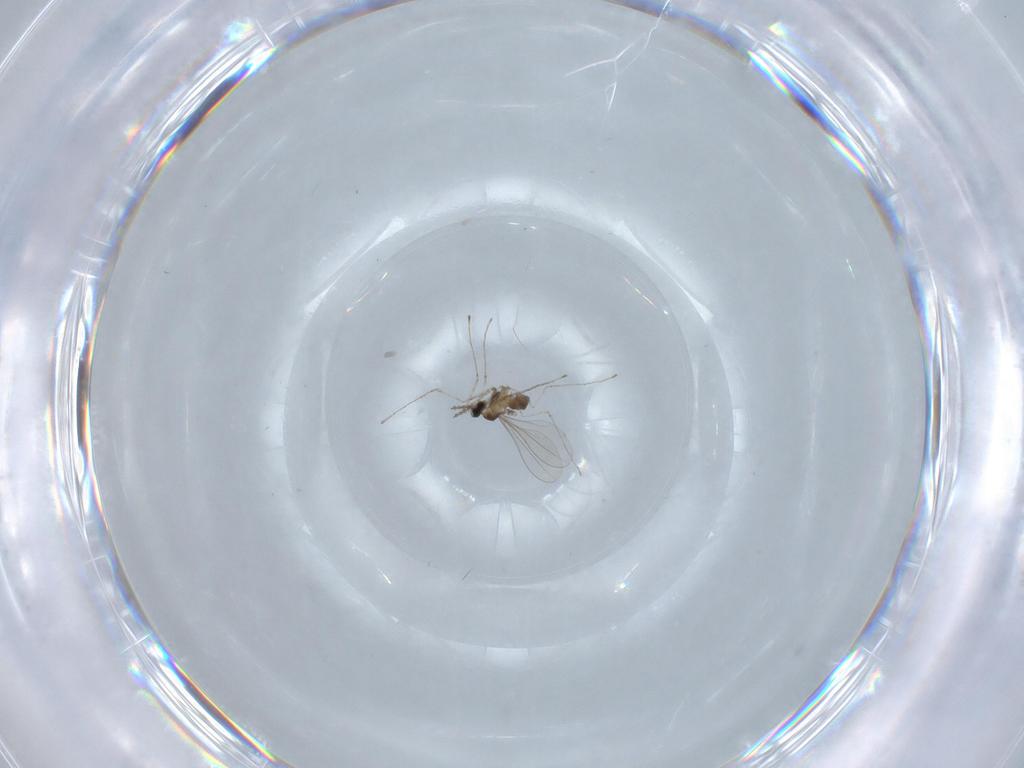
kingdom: Animalia
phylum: Arthropoda
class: Insecta
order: Diptera
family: Cecidomyiidae
